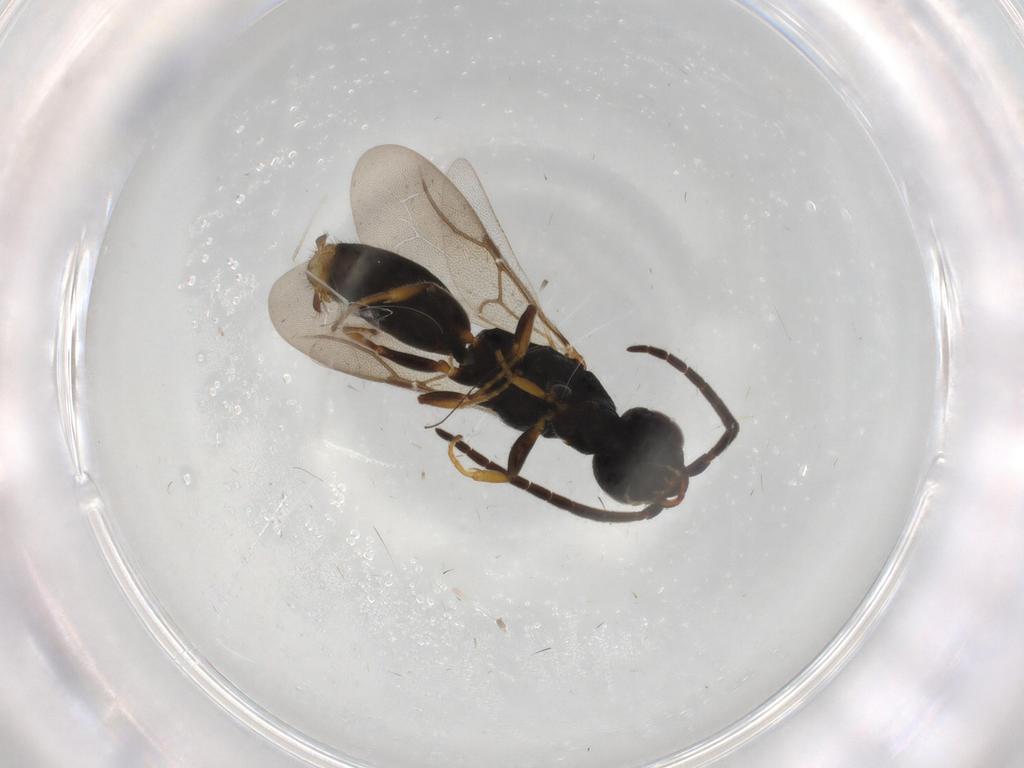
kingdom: Animalia
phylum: Arthropoda
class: Insecta
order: Hymenoptera
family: Bethylidae
